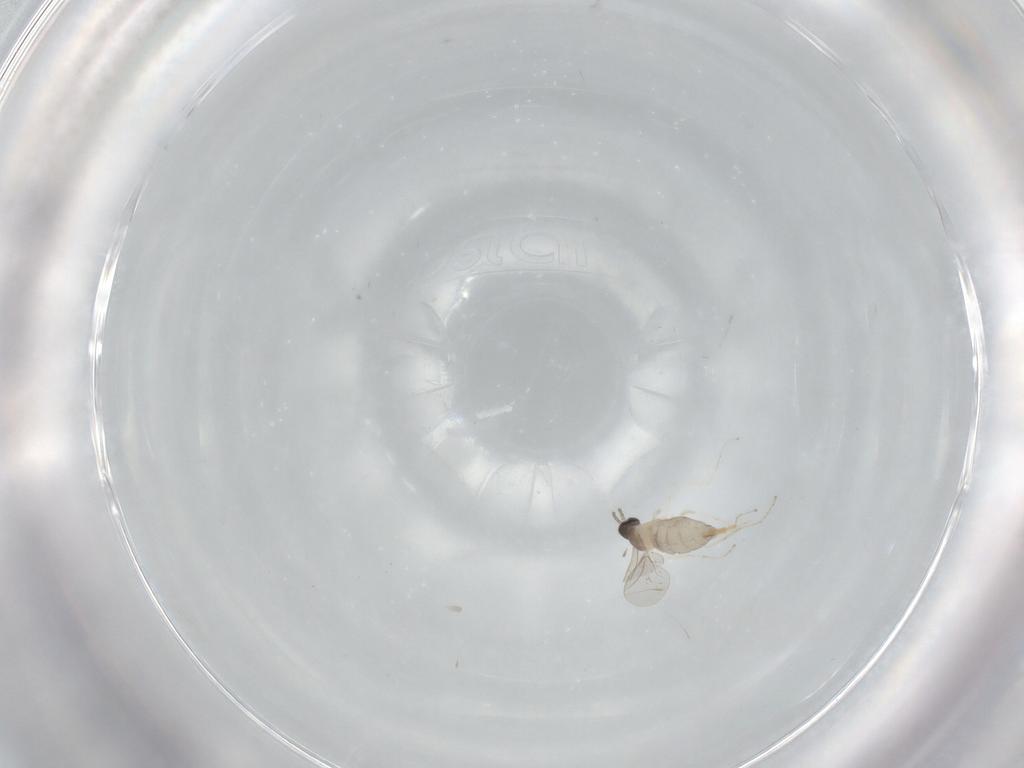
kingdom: Animalia
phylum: Arthropoda
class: Insecta
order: Diptera
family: Cecidomyiidae
